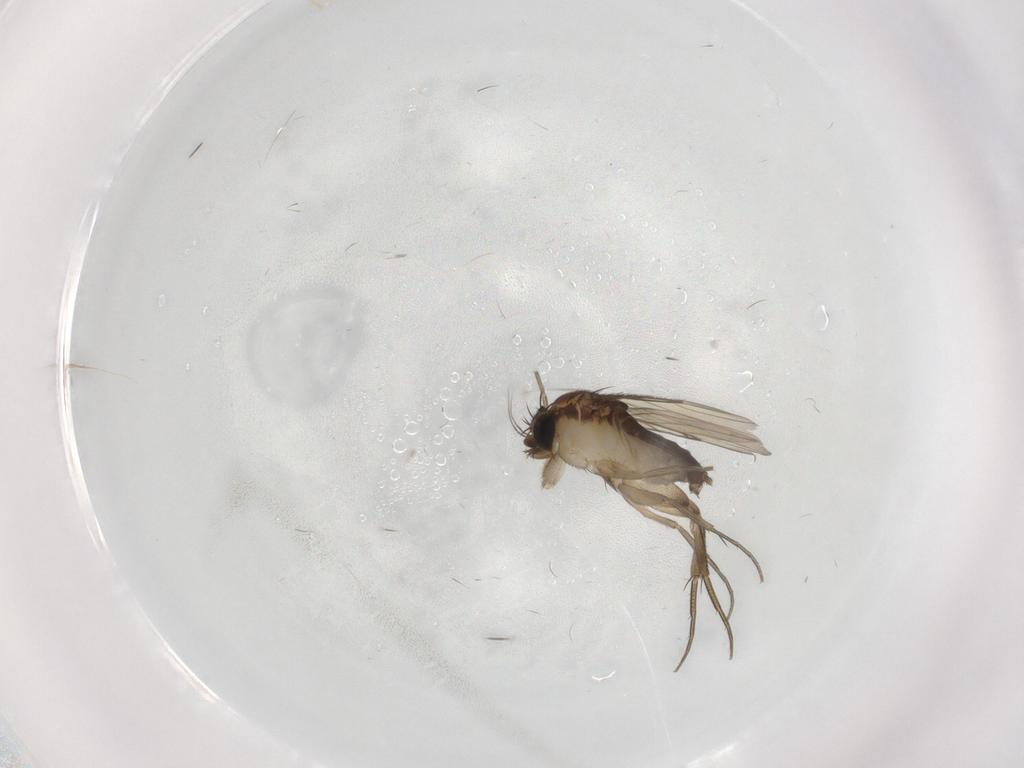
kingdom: Animalia
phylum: Arthropoda
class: Insecta
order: Diptera
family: Phoridae
